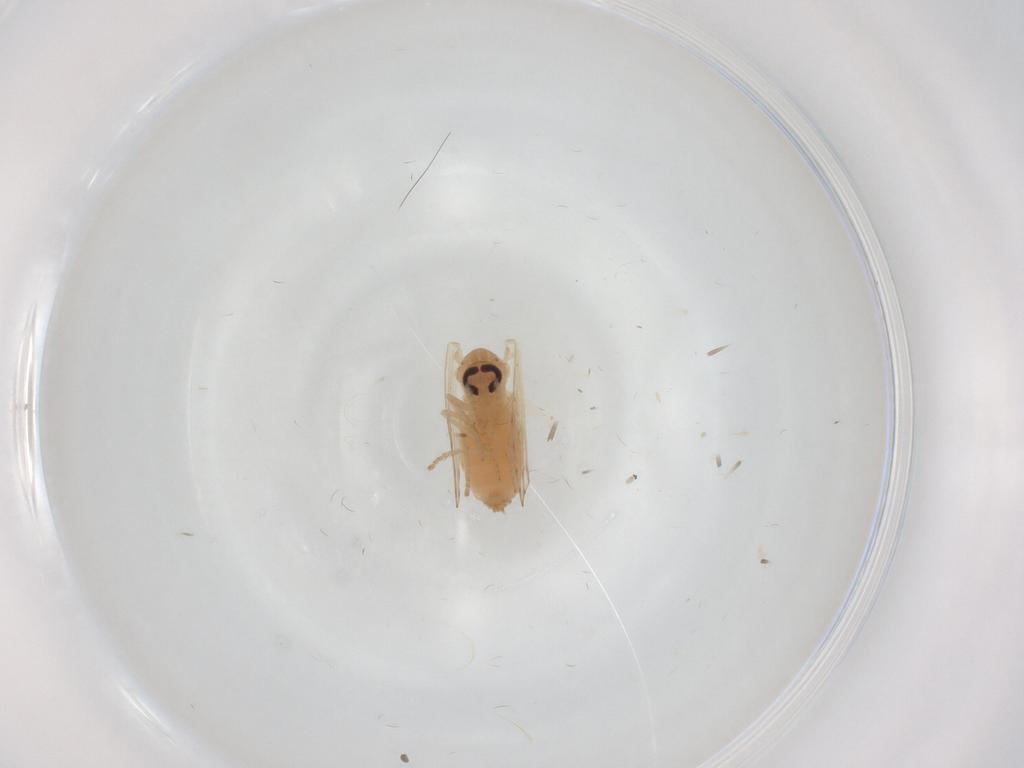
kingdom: Animalia
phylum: Arthropoda
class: Insecta
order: Diptera
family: Psychodidae
